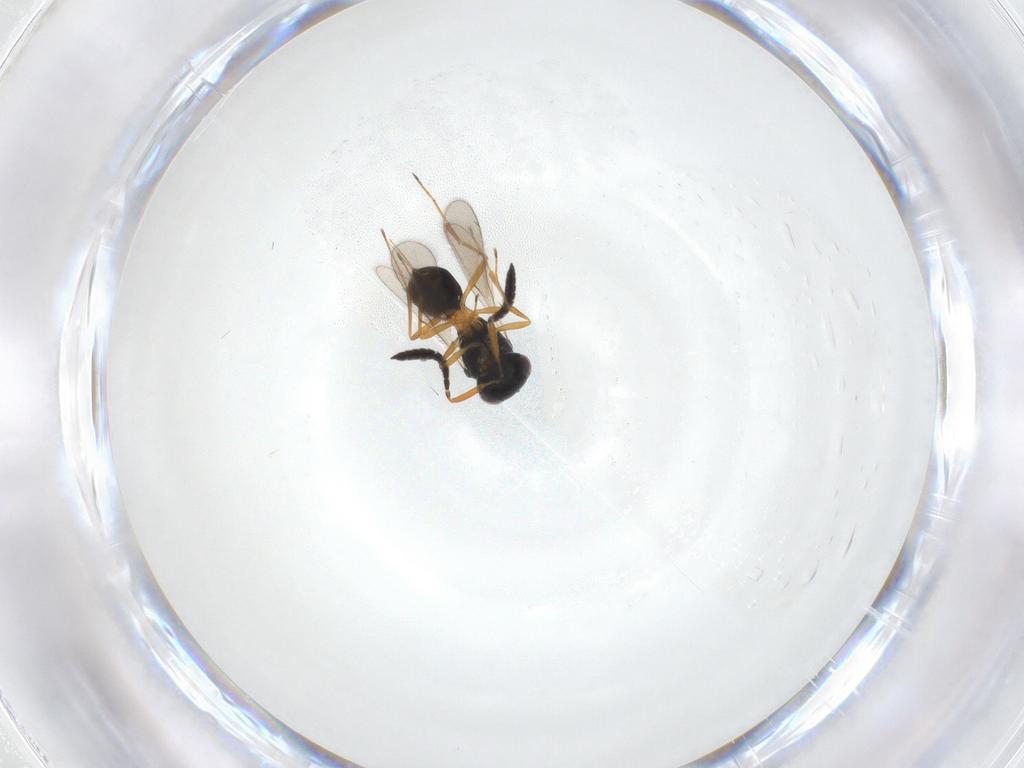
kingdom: Animalia
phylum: Arthropoda
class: Insecta
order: Hymenoptera
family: Scelionidae
